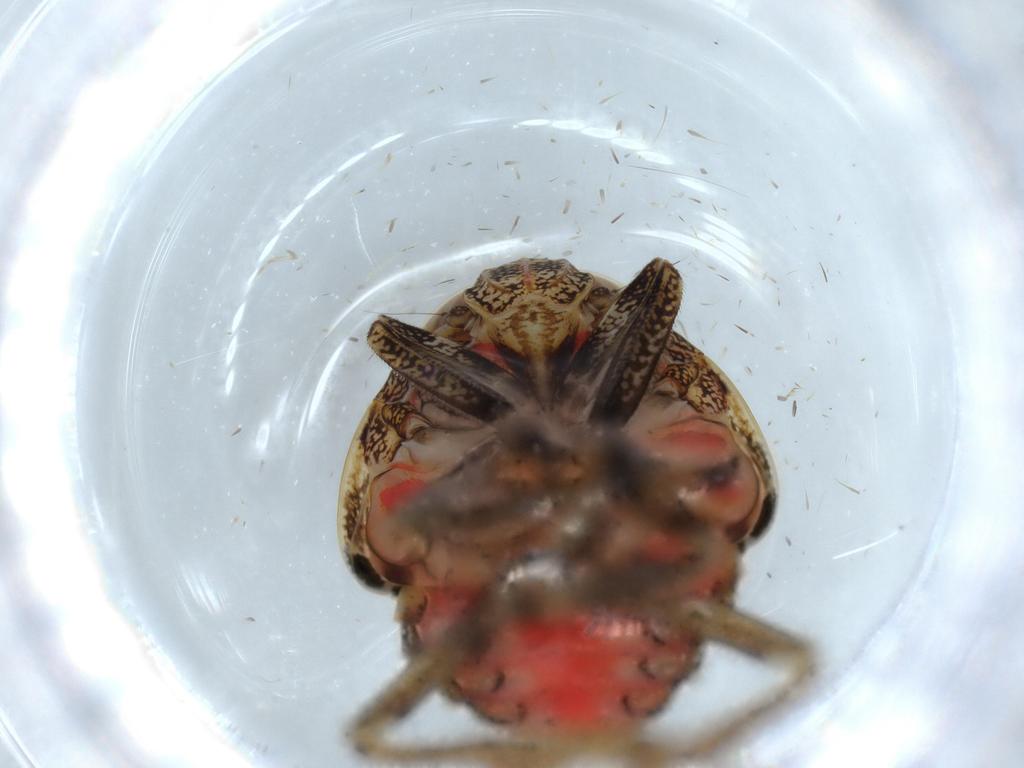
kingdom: Animalia
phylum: Arthropoda
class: Insecta
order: Hemiptera
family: Issidae
